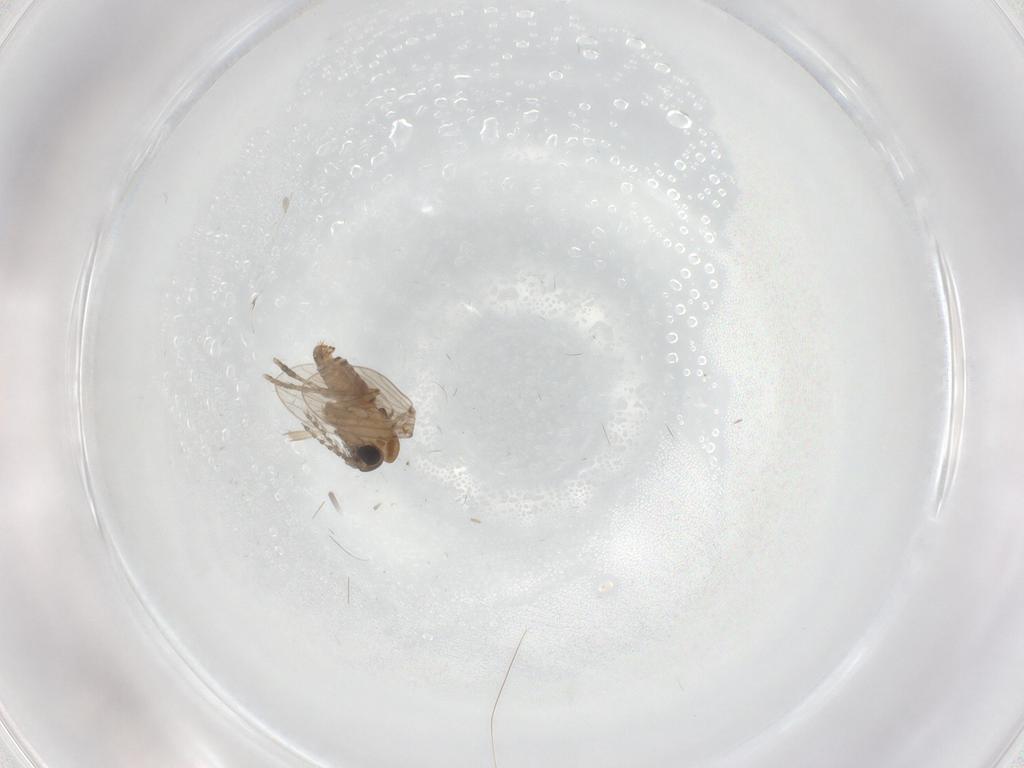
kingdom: Animalia
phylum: Arthropoda
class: Insecta
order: Diptera
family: Psychodidae
